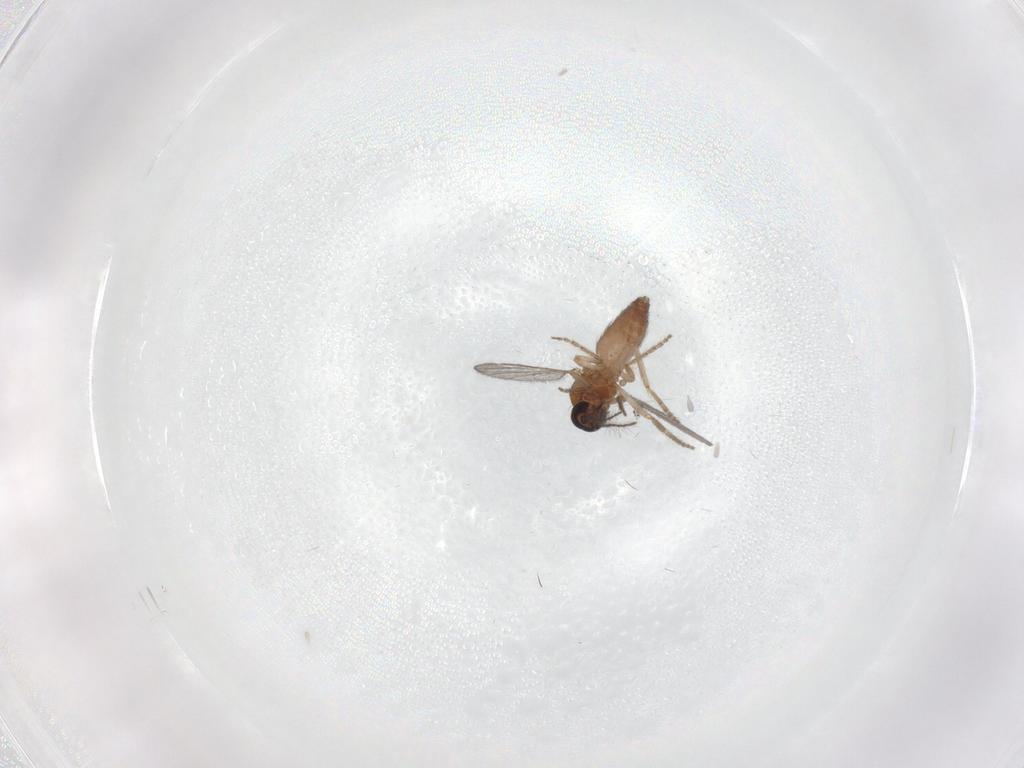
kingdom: Animalia
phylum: Arthropoda
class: Insecta
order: Diptera
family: Ceratopogonidae
